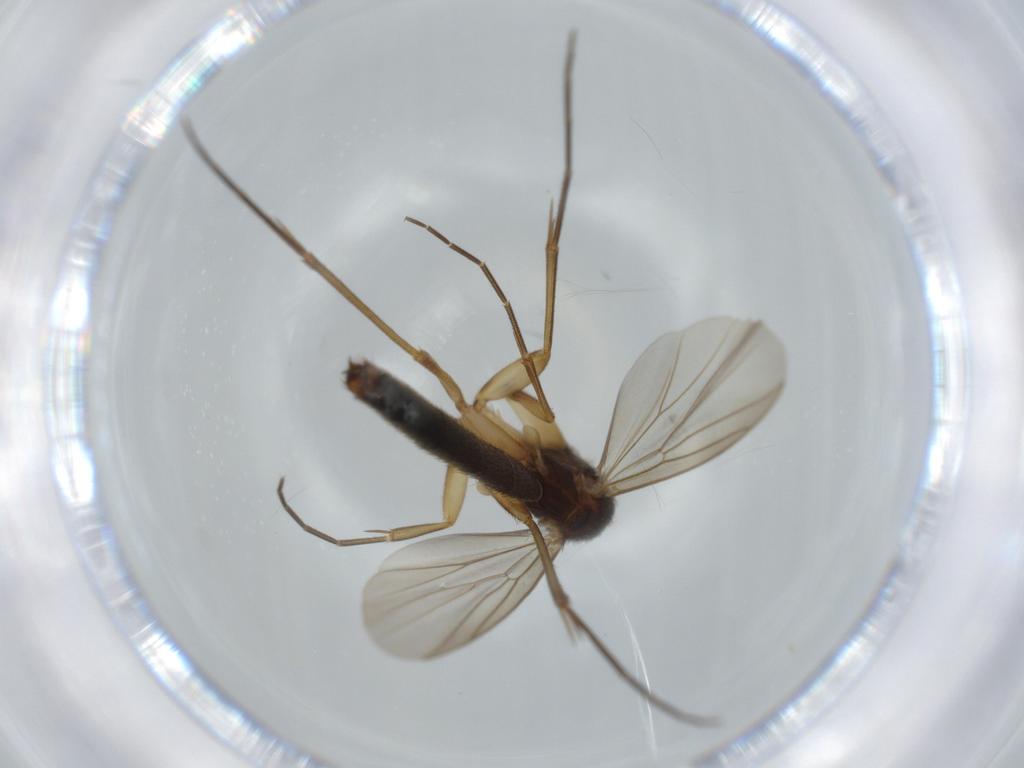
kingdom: Animalia
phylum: Arthropoda
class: Insecta
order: Diptera
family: Mycetophilidae
